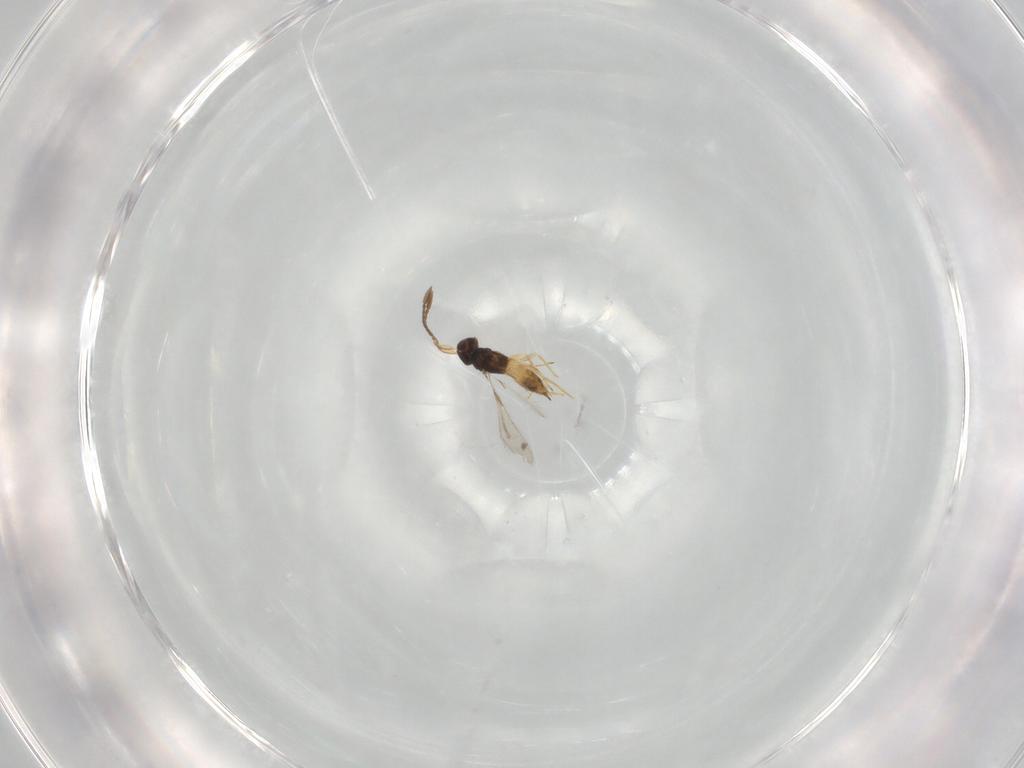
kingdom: Animalia
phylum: Arthropoda
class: Insecta
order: Hymenoptera
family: Mymaridae
